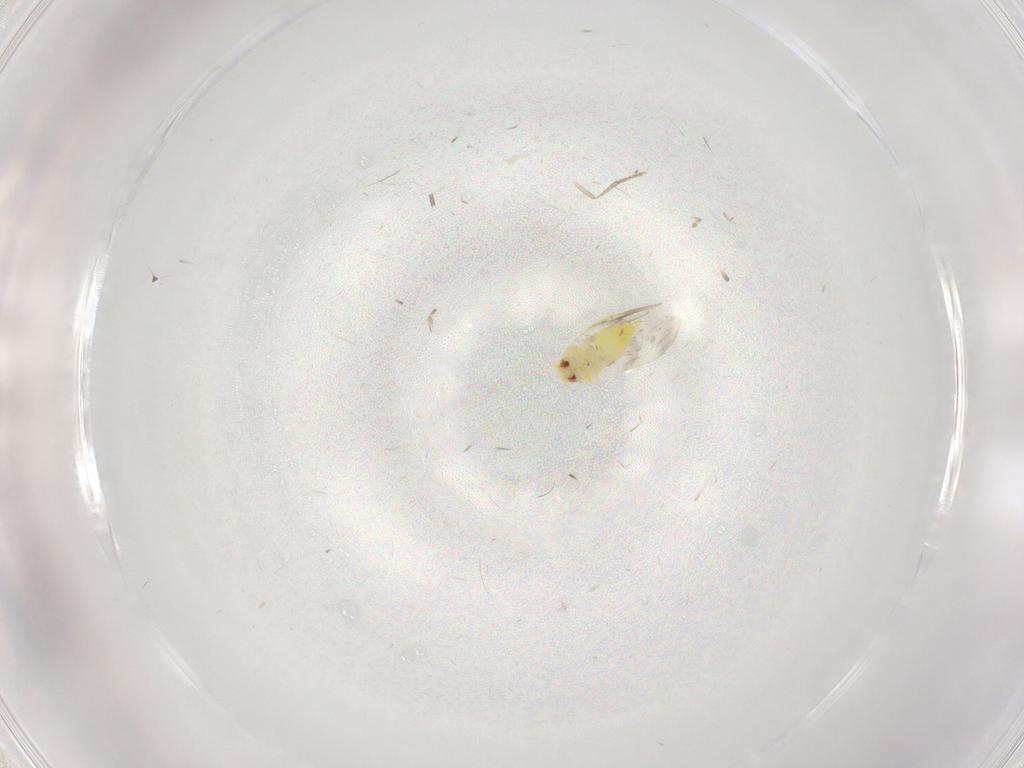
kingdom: Animalia
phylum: Arthropoda
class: Insecta
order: Hemiptera
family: Aleyrodidae
